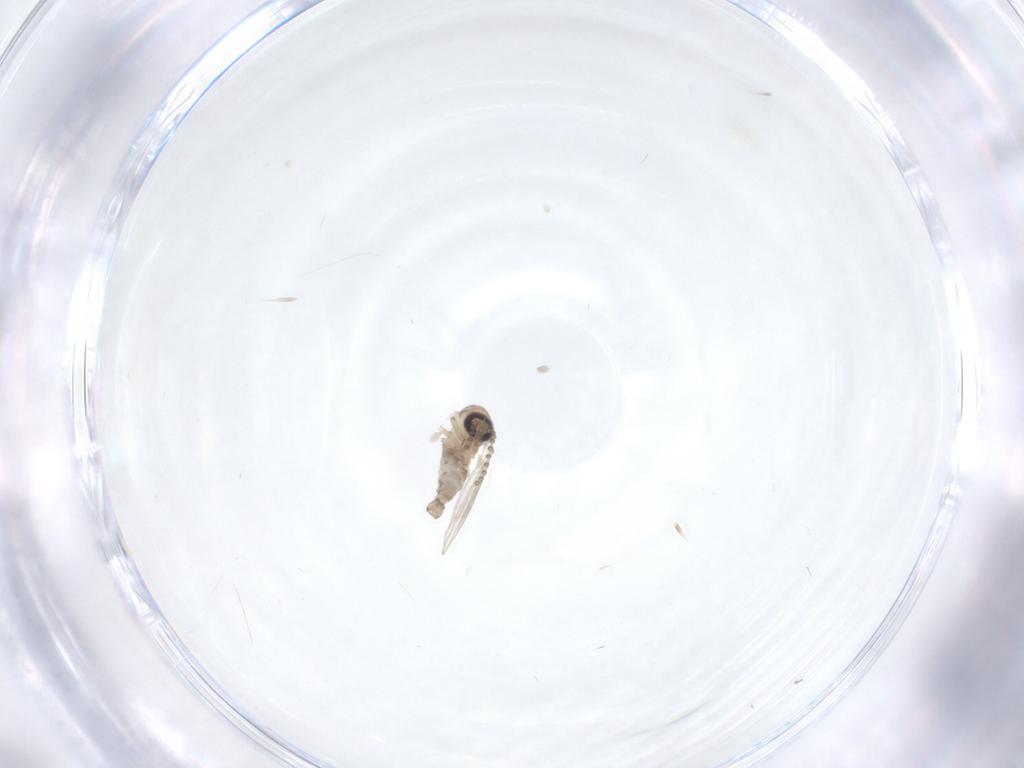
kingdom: Animalia
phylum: Arthropoda
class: Insecta
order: Diptera
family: Psychodidae
